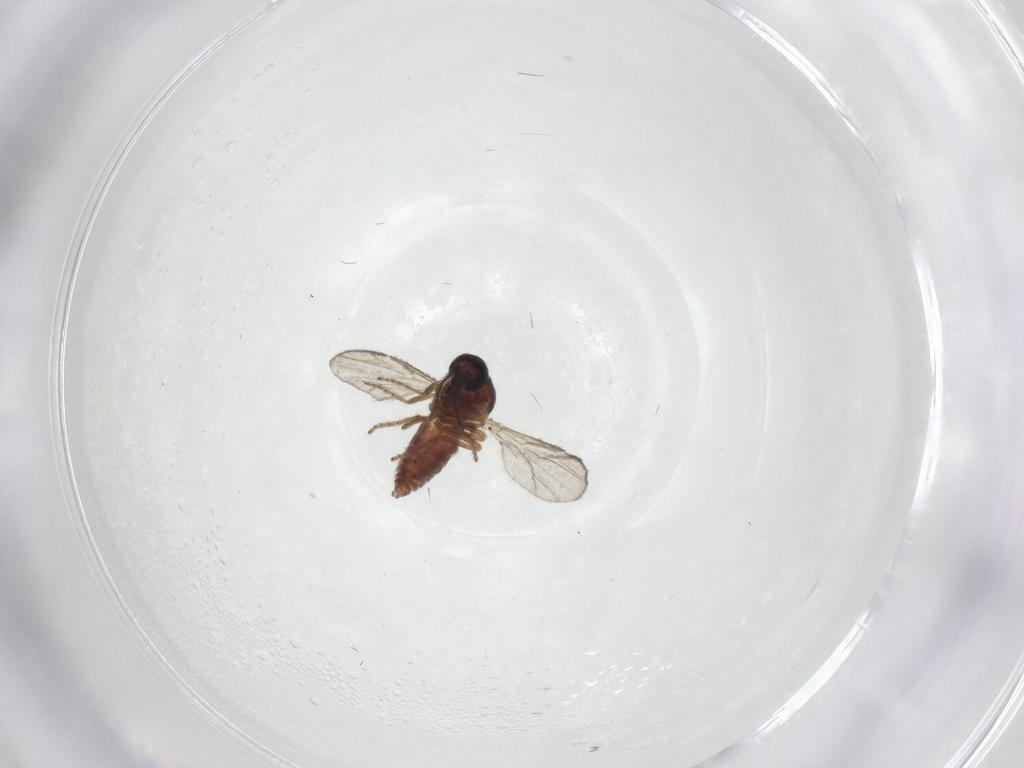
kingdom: Animalia
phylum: Arthropoda
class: Insecta
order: Diptera
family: Ceratopogonidae
